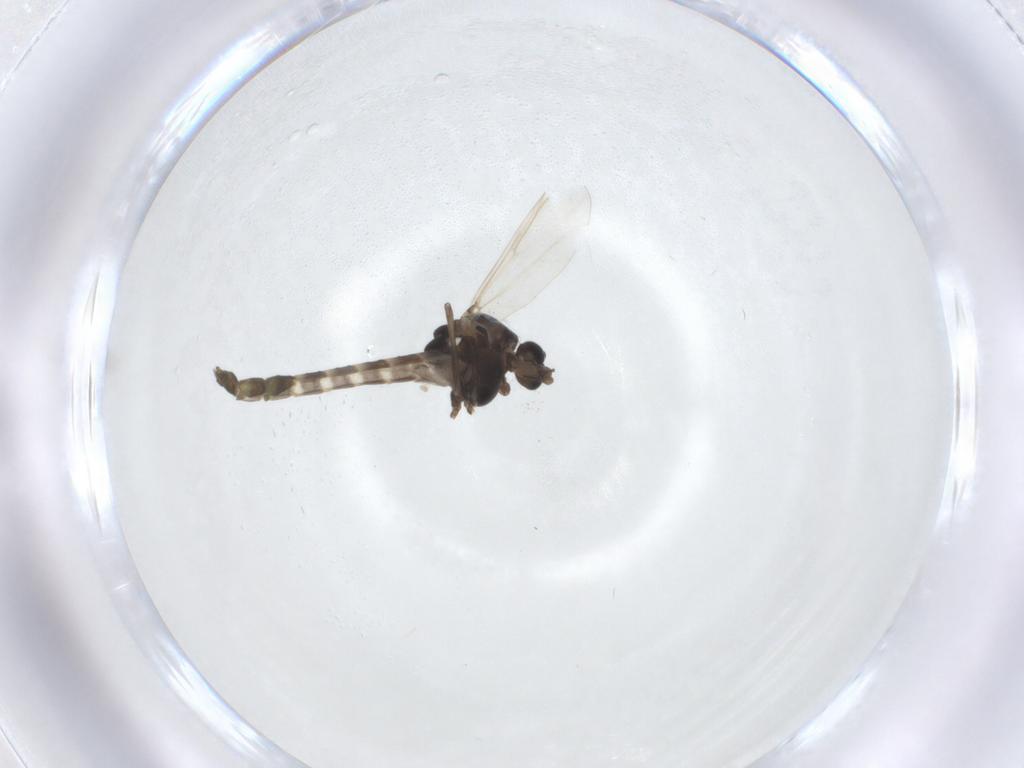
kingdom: Animalia
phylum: Arthropoda
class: Insecta
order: Diptera
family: Chironomidae
